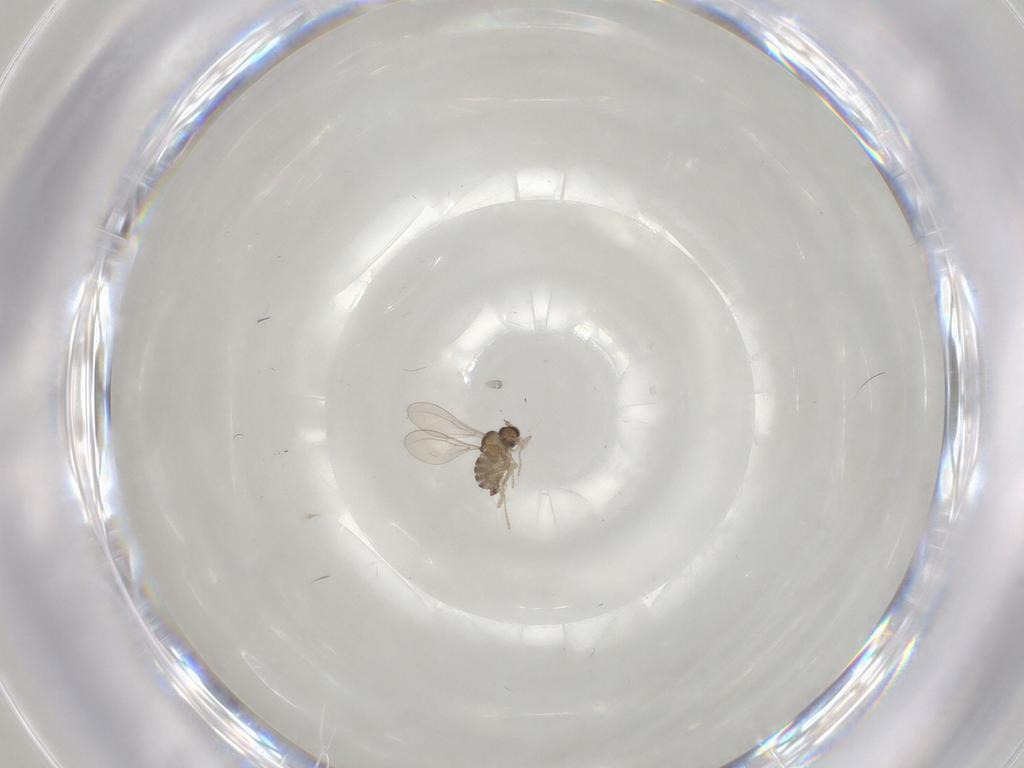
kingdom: Animalia
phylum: Arthropoda
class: Insecta
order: Diptera
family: Cecidomyiidae
